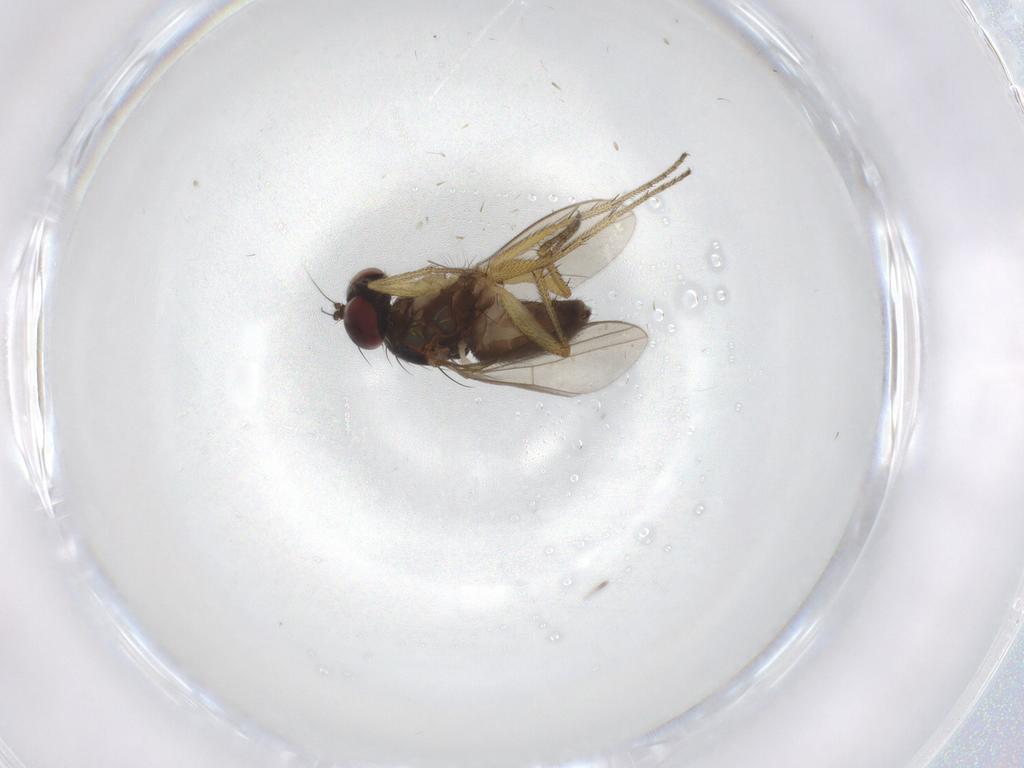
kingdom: Animalia
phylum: Arthropoda
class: Insecta
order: Diptera
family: Sciaridae
